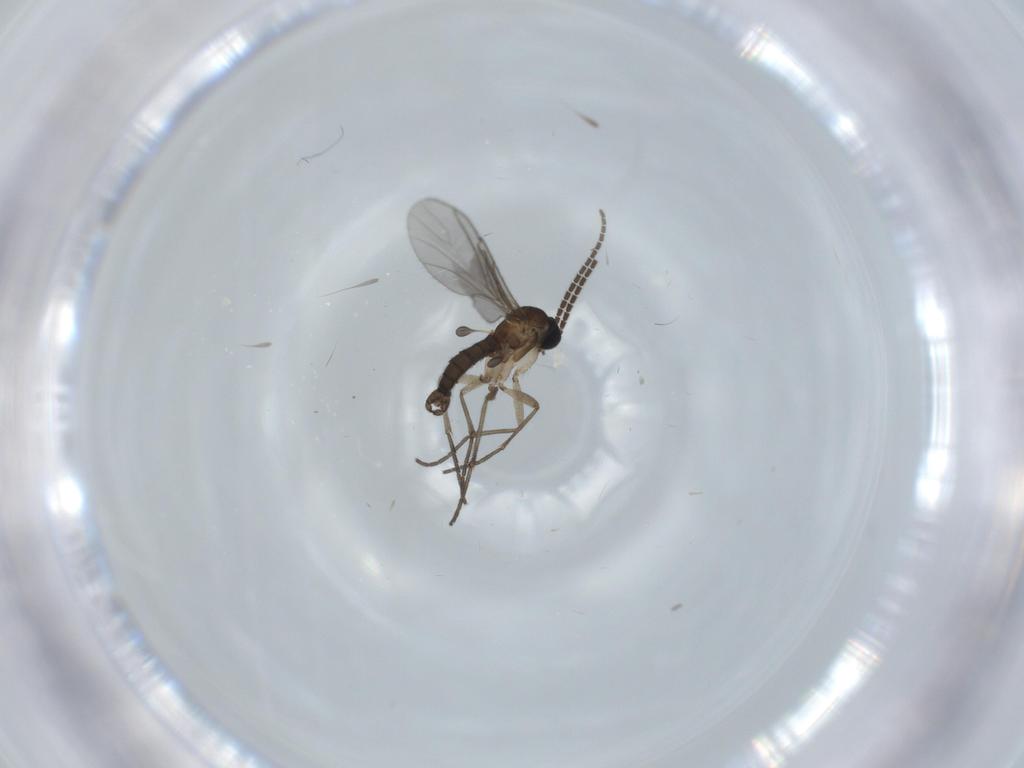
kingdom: Animalia
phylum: Arthropoda
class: Insecta
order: Diptera
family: Sciaridae
